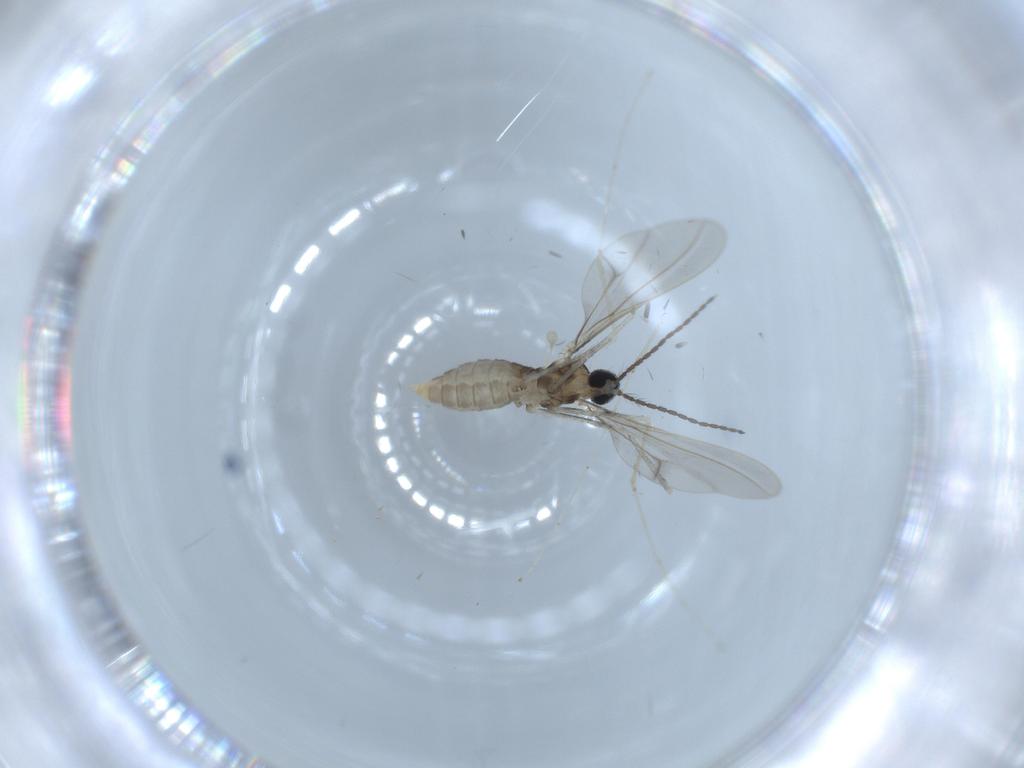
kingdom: Animalia
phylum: Arthropoda
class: Insecta
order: Diptera
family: Cecidomyiidae
